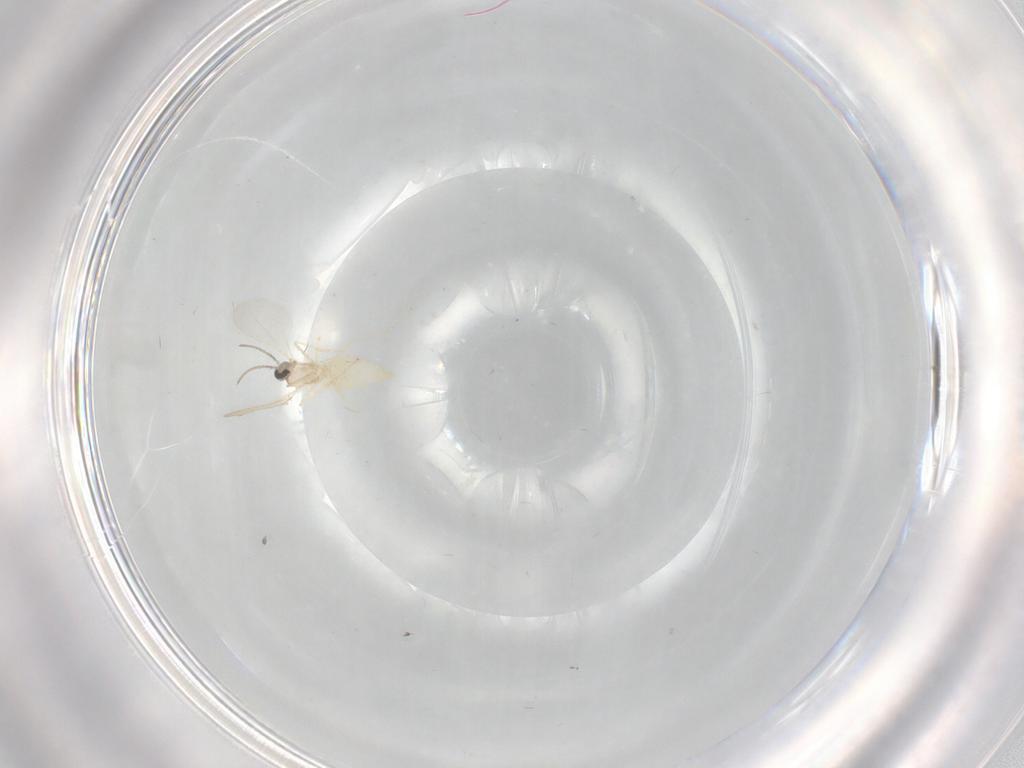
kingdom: Animalia
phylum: Arthropoda
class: Insecta
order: Diptera
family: Cecidomyiidae
